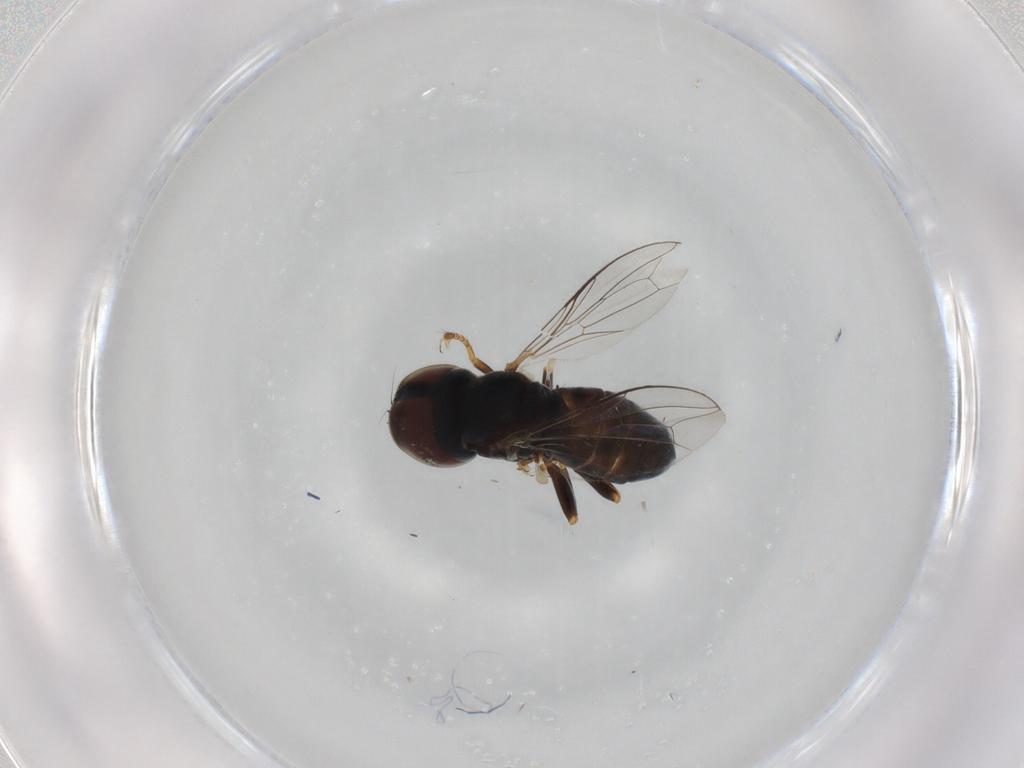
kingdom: Animalia
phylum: Arthropoda
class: Insecta
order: Diptera
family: Pipunculidae
